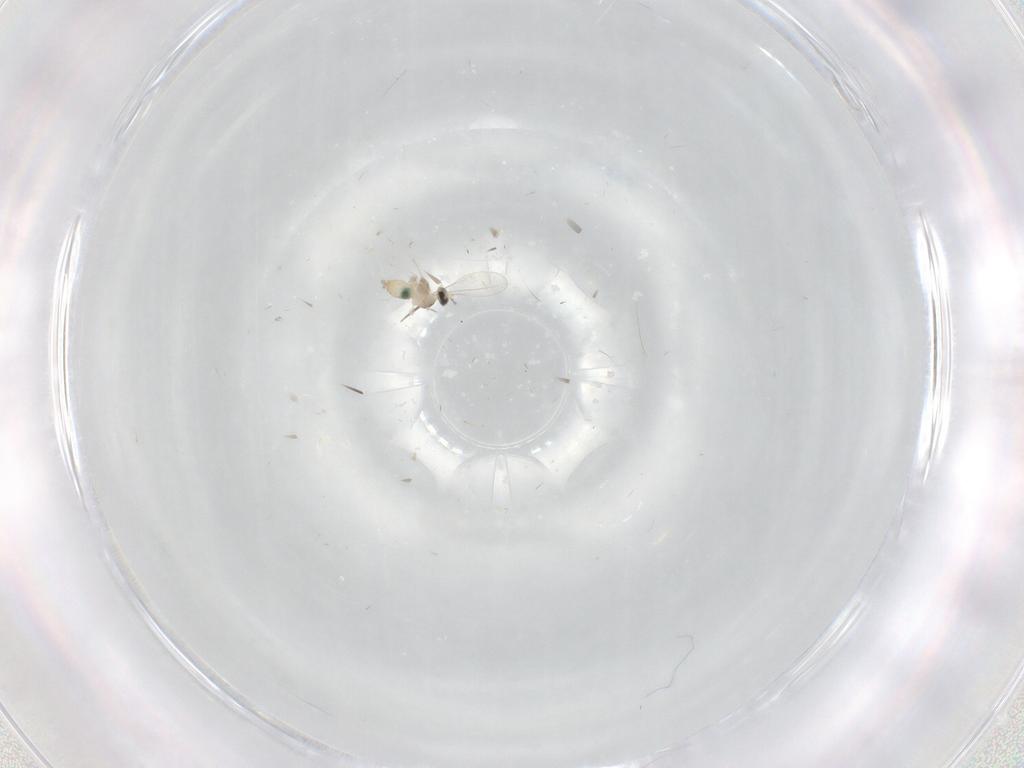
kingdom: Animalia
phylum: Arthropoda
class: Insecta
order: Diptera
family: Cecidomyiidae
